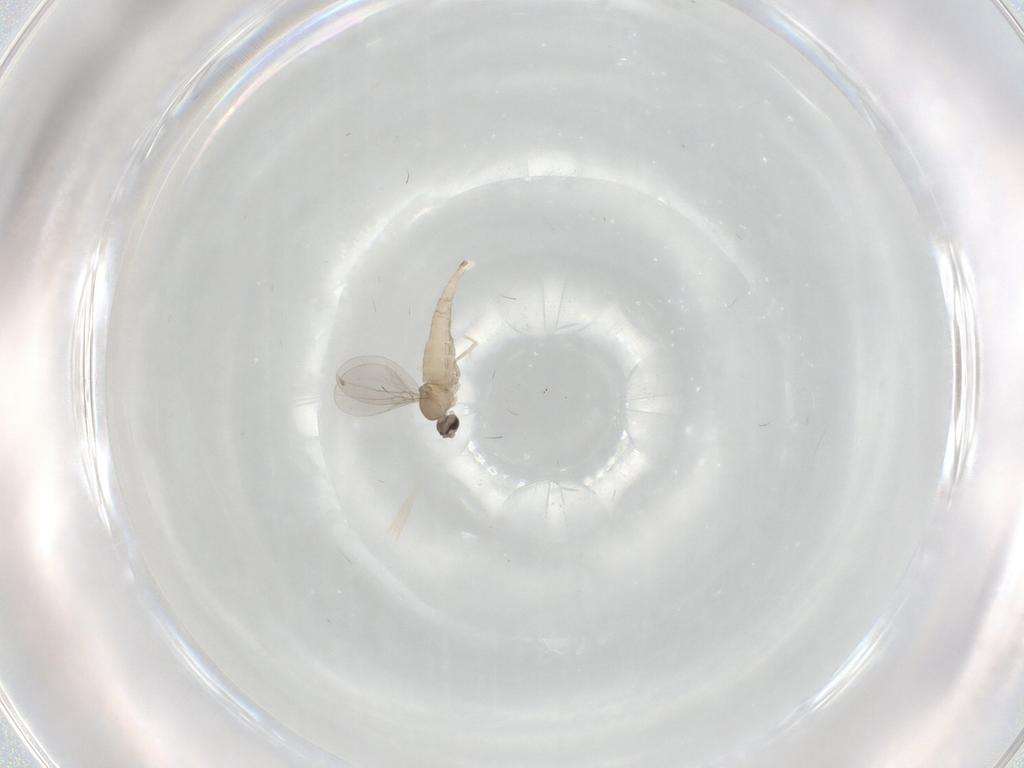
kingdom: Animalia
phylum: Arthropoda
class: Insecta
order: Diptera
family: Cecidomyiidae
